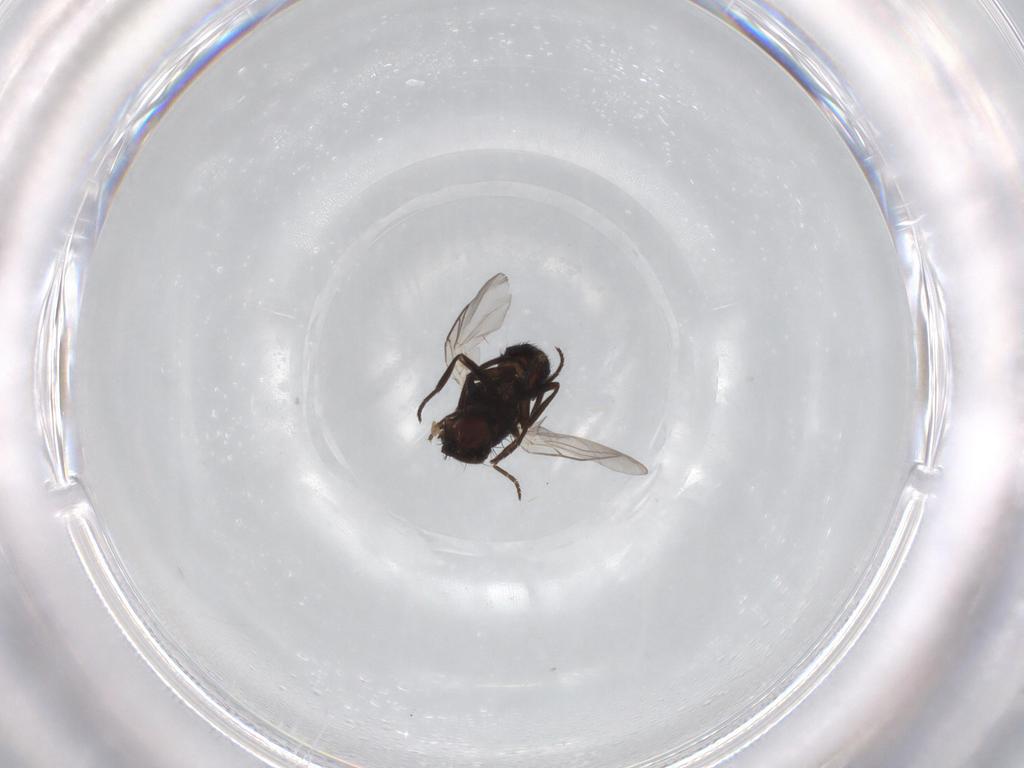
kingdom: Animalia
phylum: Arthropoda
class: Insecta
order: Diptera
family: Cecidomyiidae
